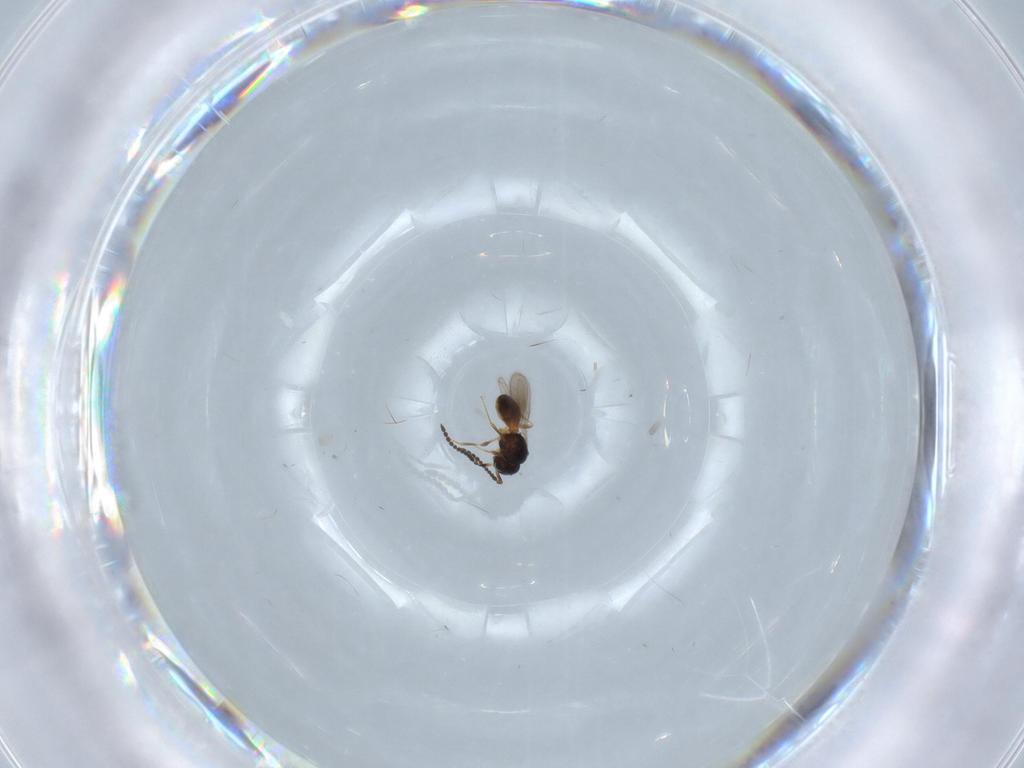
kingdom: Animalia
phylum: Arthropoda
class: Insecta
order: Hymenoptera
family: Scelionidae
